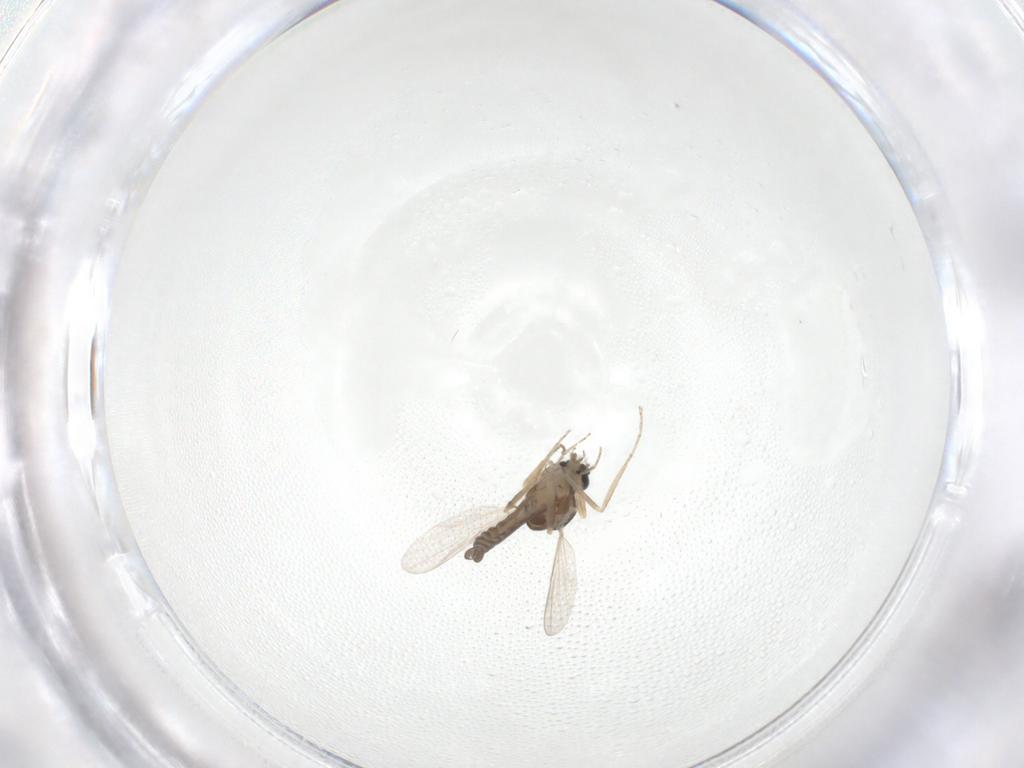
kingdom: Animalia
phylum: Arthropoda
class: Insecta
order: Diptera
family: Ceratopogonidae
